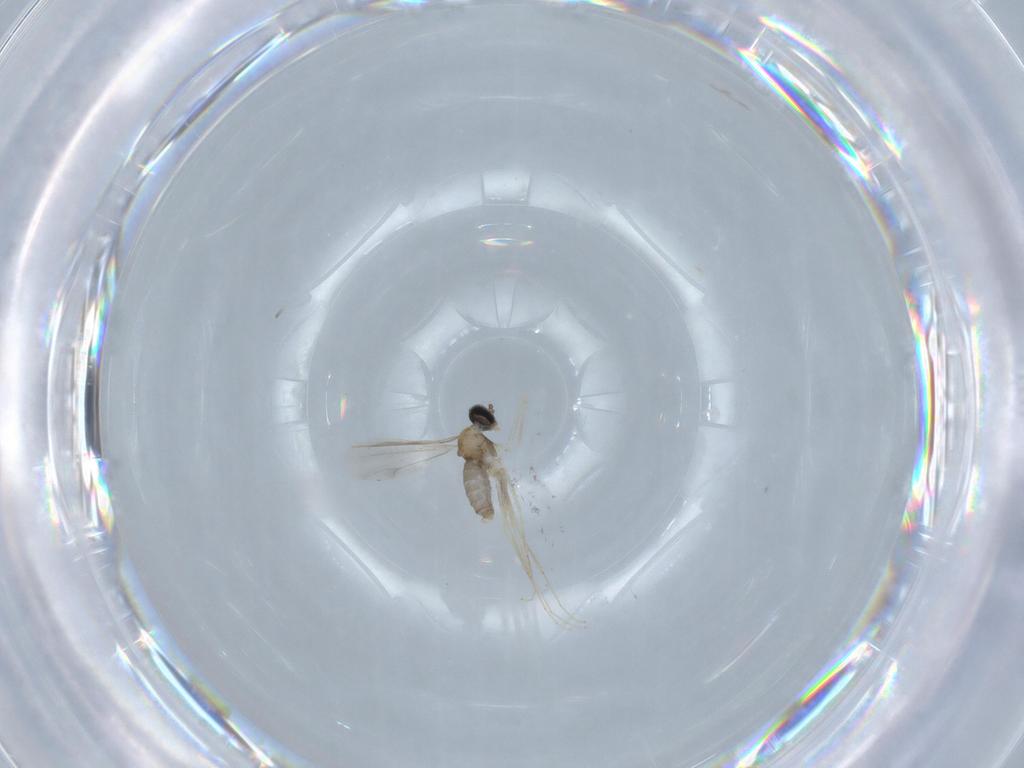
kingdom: Animalia
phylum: Arthropoda
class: Insecta
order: Diptera
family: Cecidomyiidae
